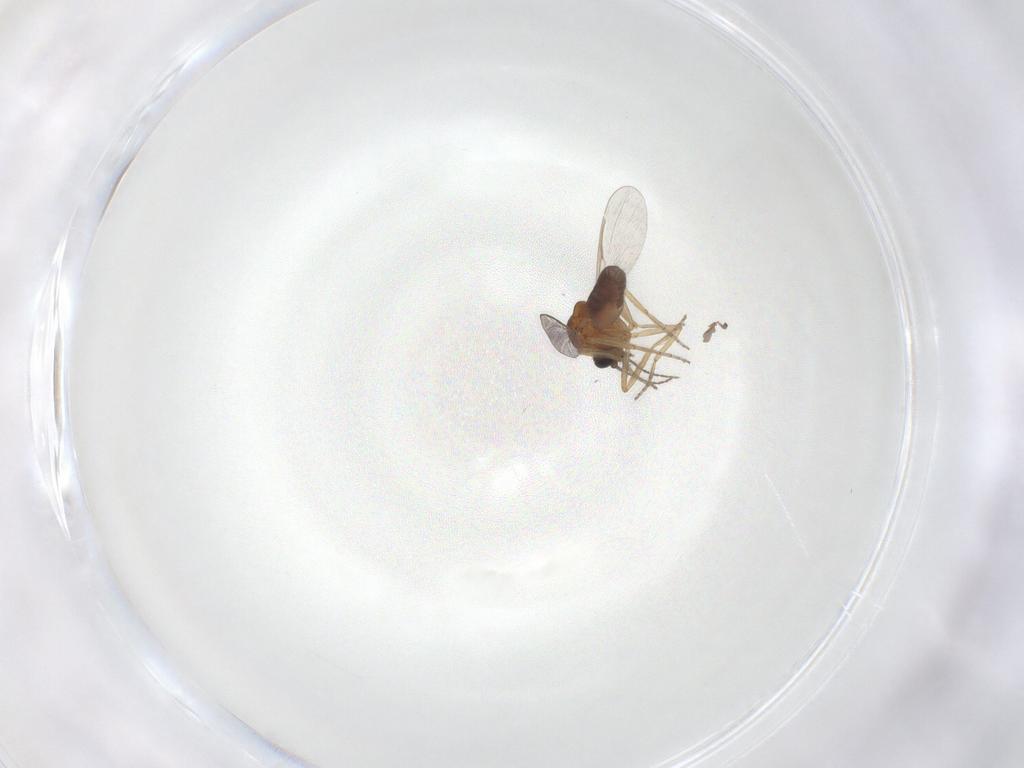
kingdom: Animalia
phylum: Arthropoda
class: Insecta
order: Diptera
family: Ceratopogonidae
